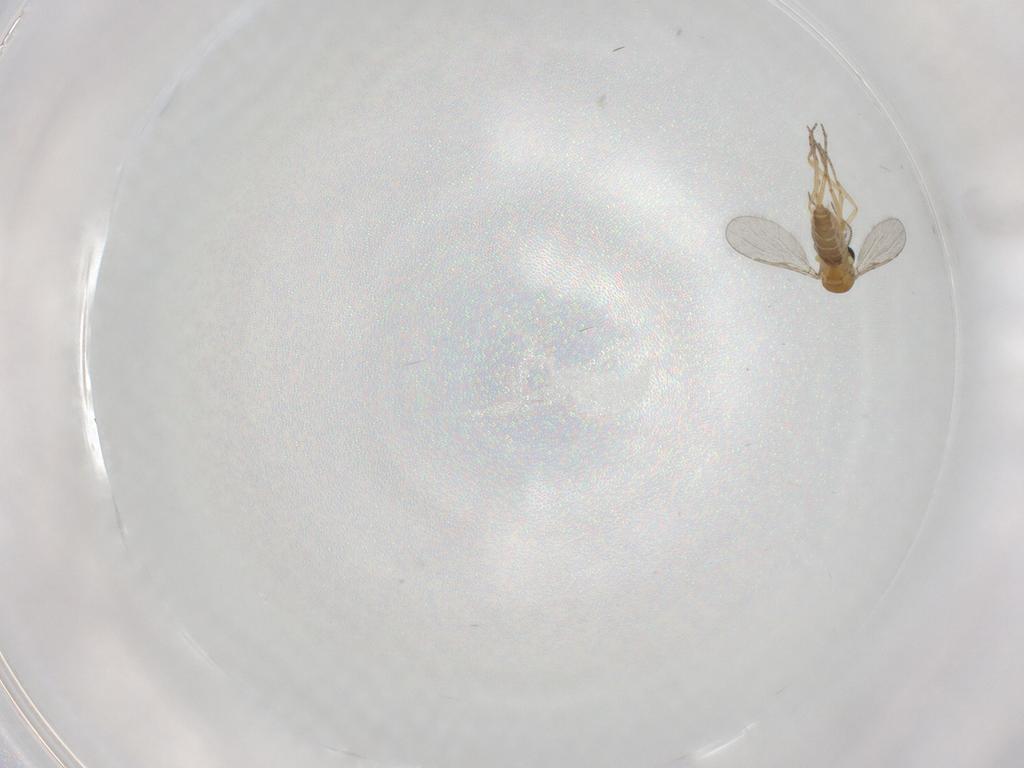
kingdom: Animalia
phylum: Arthropoda
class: Insecta
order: Diptera
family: Ceratopogonidae
